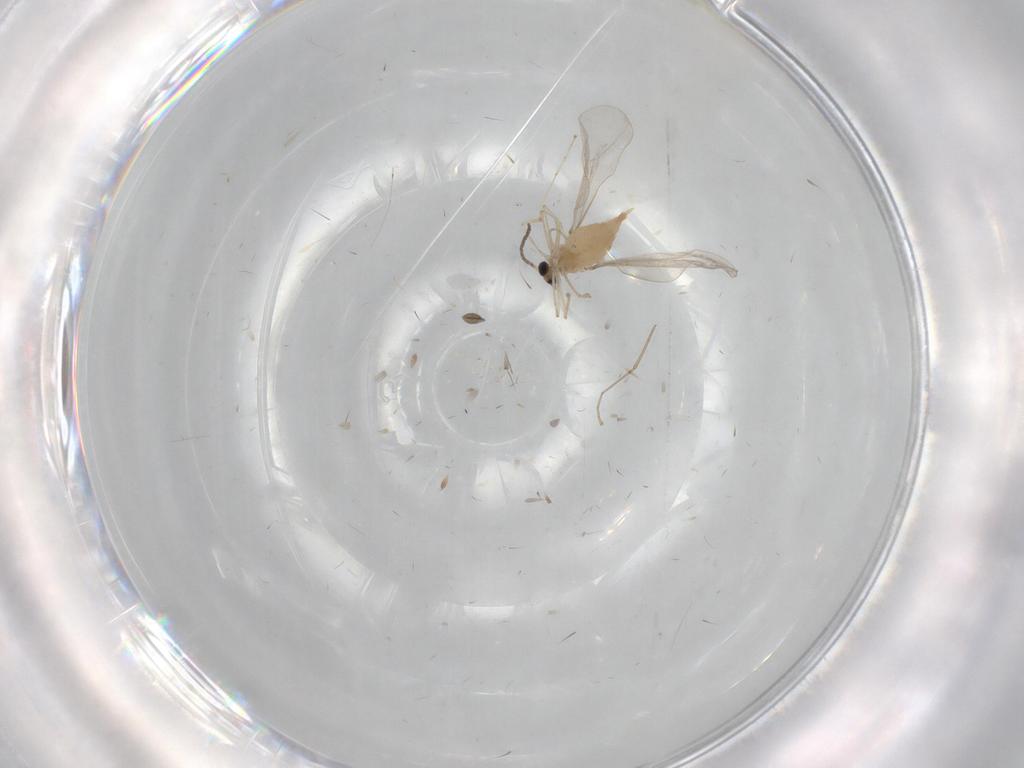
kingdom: Animalia
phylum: Arthropoda
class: Insecta
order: Diptera
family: Cecidomyiidae
